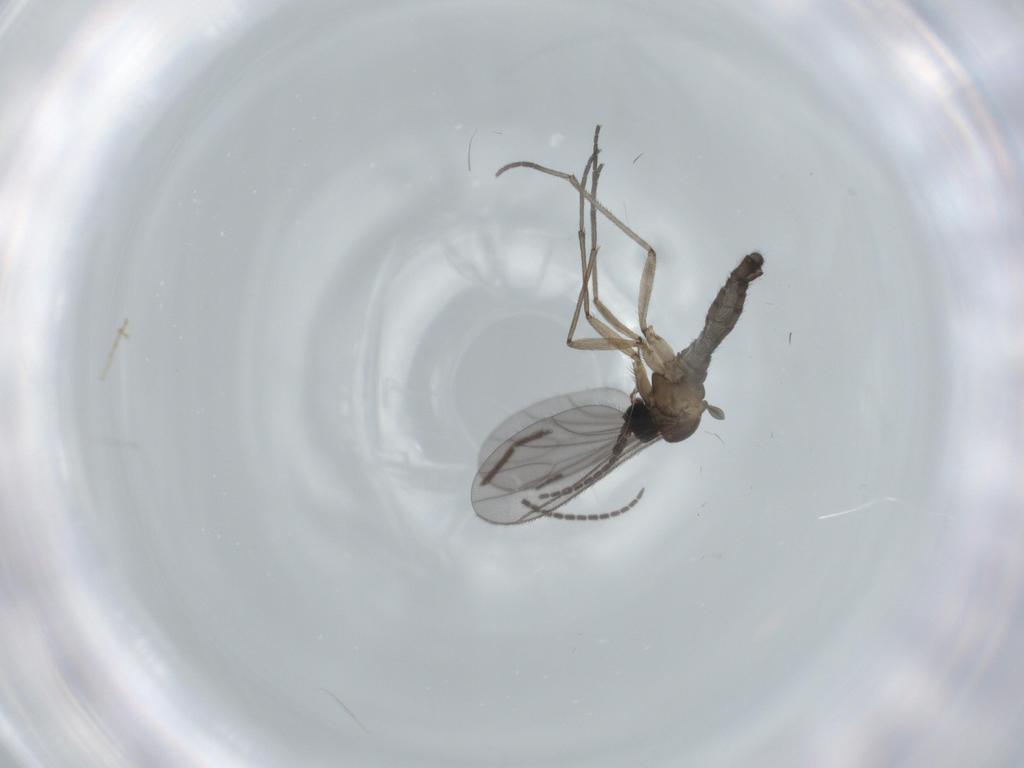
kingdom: Animalia
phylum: Arthropoda
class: Insecta
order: Diptera
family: Sciaridae
